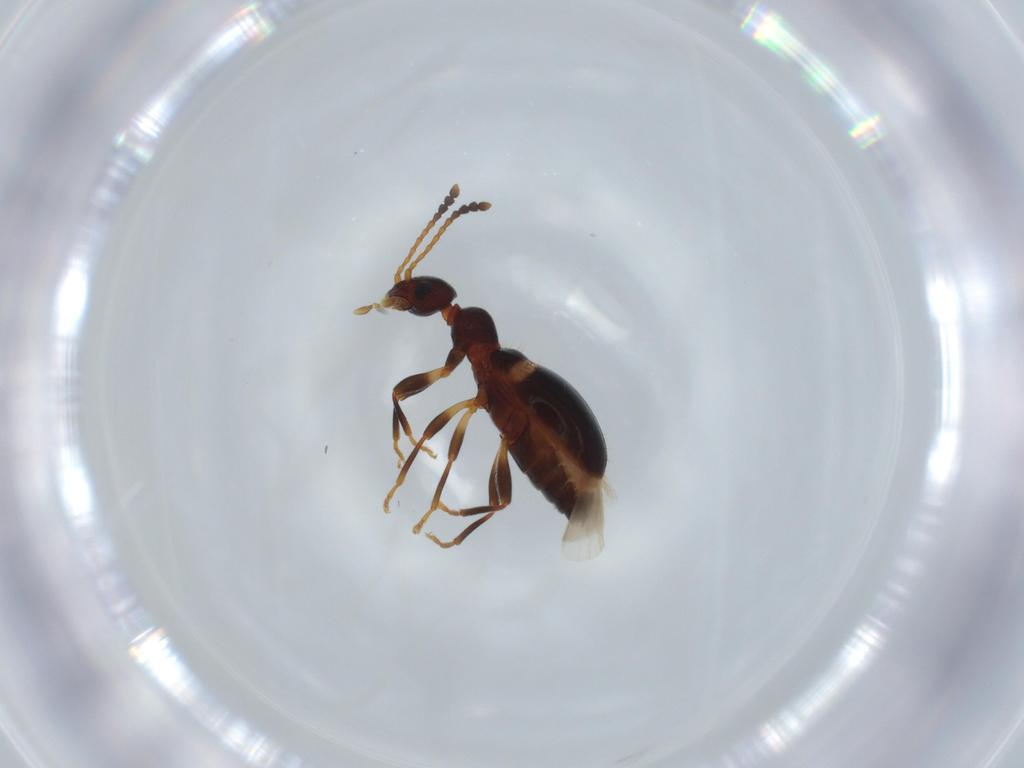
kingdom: Animalia
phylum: Arthropoda
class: Insecta
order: Coleoptera
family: Anthicidae
